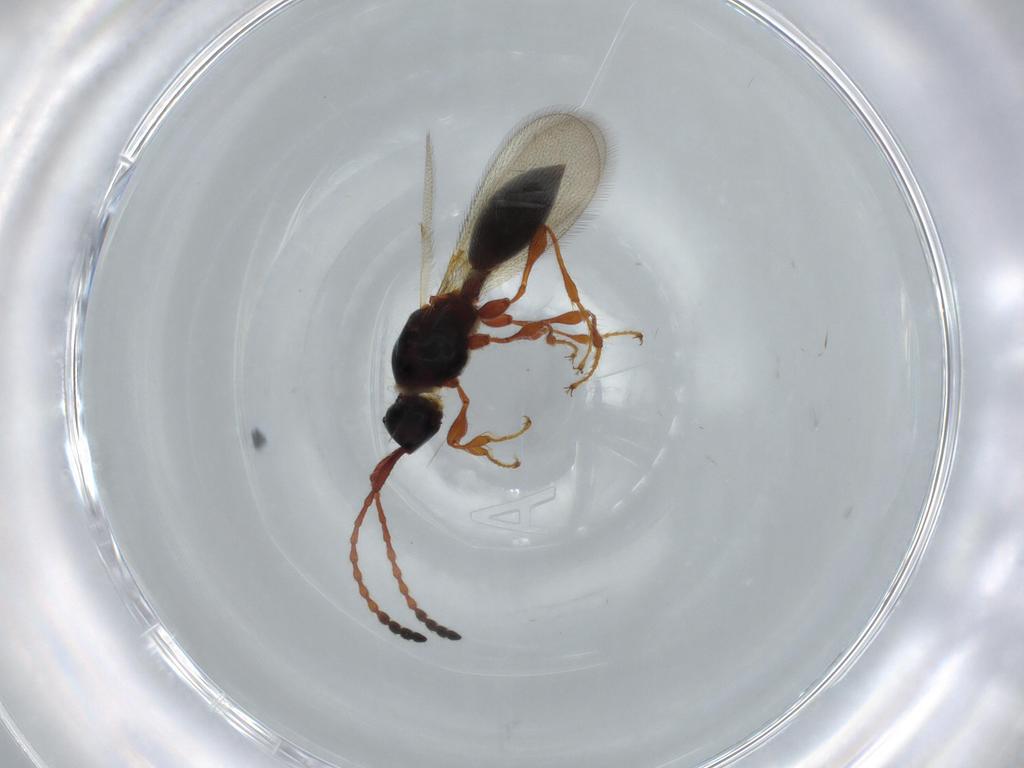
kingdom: Animalia
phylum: Arthropoda
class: Insecta
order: Hymenoptera
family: Diapriidae
